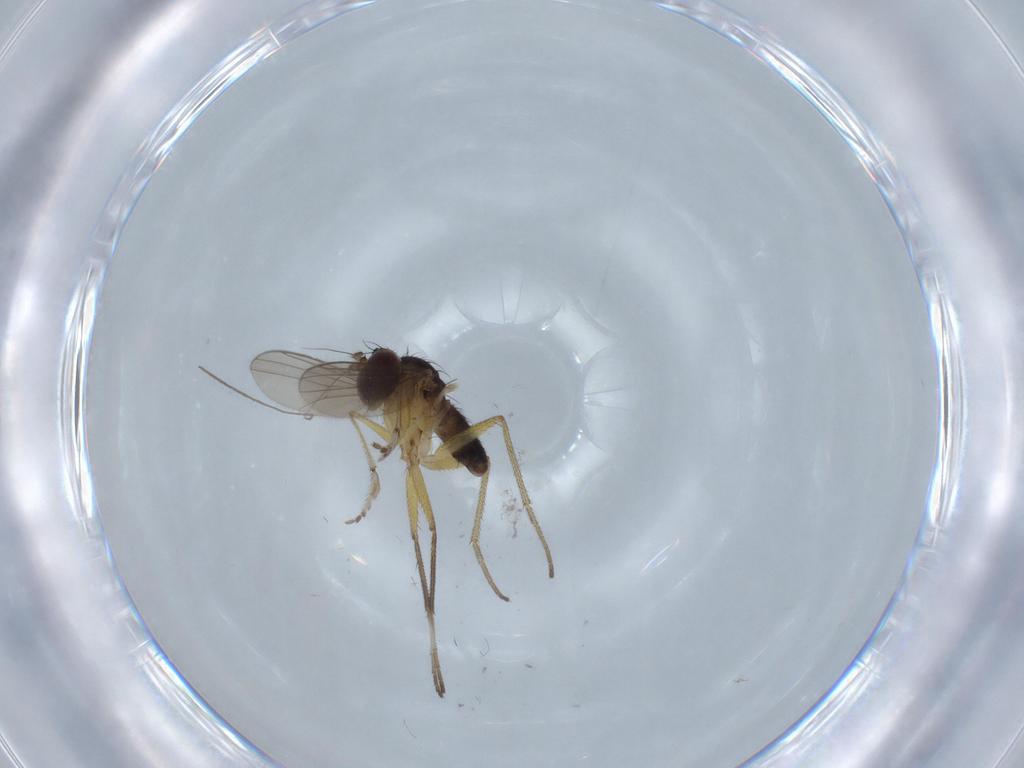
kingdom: Animalia
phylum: Arthropoda
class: Insecta
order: Diptera
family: Dolichopodidae
